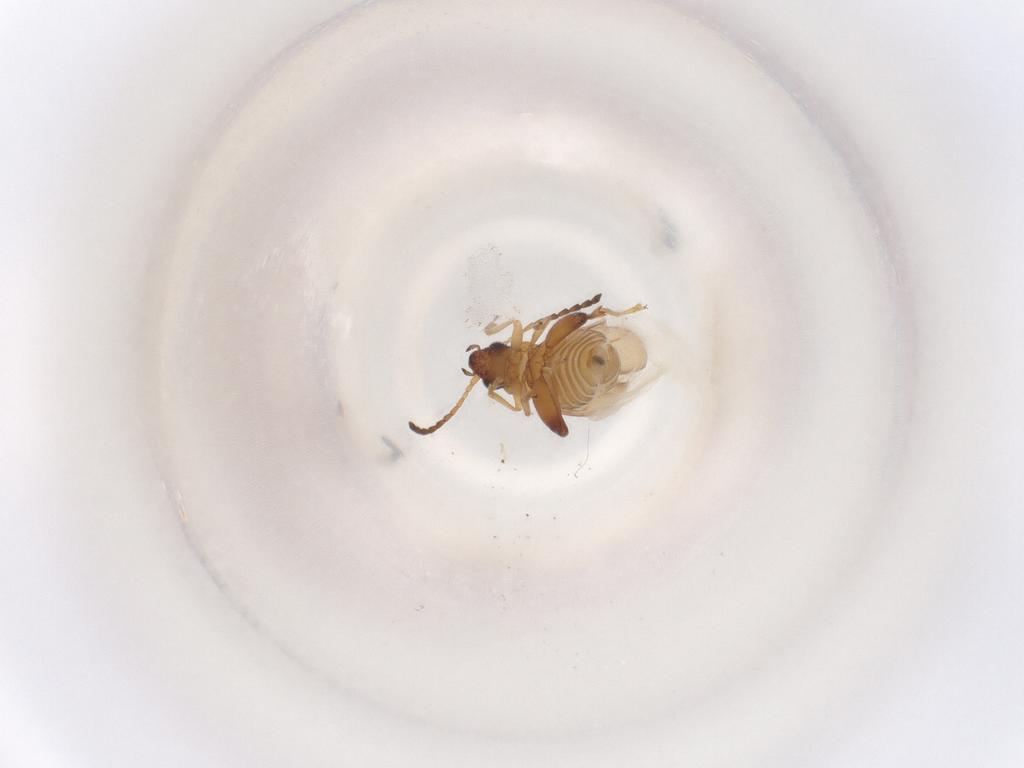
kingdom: Animalia
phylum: Arthropoda
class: Insecta
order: Coleoptera
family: Chrysomelidae
